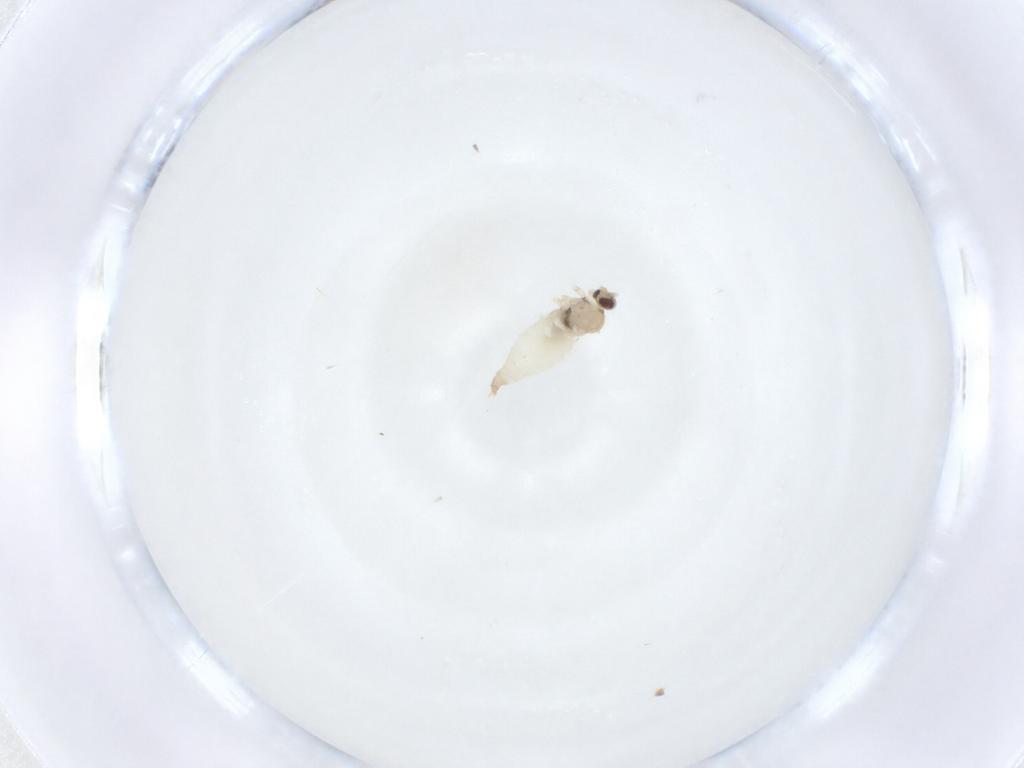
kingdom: Animalia
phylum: Arthropoda
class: Insecta
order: Diptera
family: Cecidomyiidae
